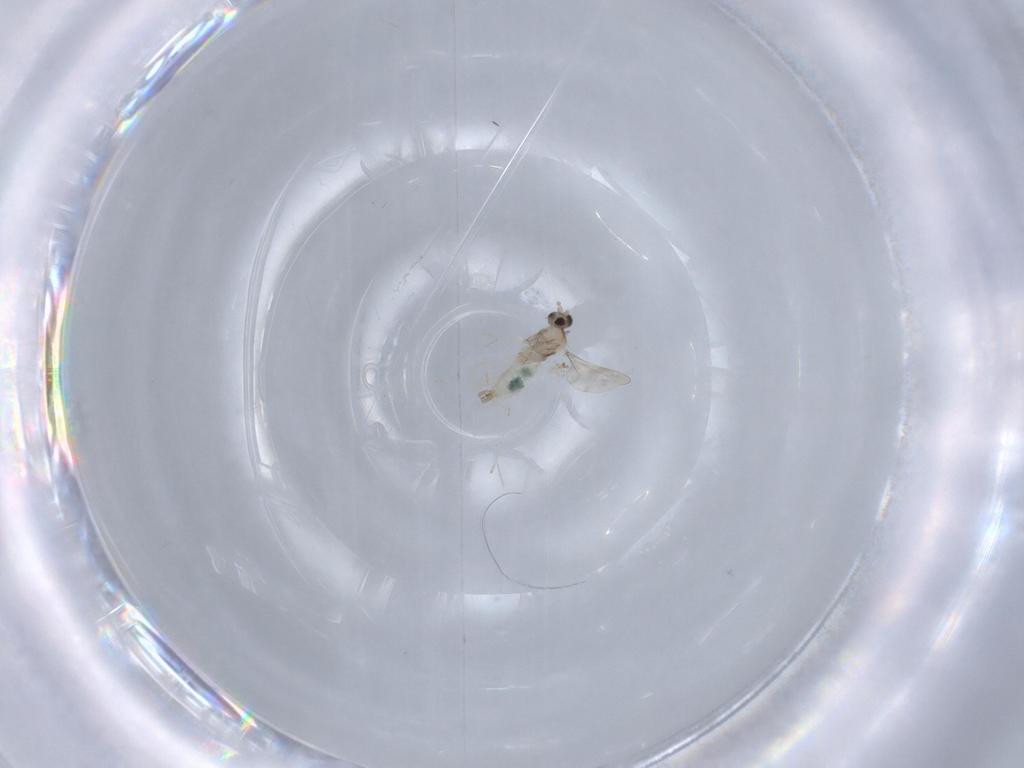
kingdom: Animalia
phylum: Arthropoda
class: Insecta
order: Diptera
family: Cecidomyiidae
